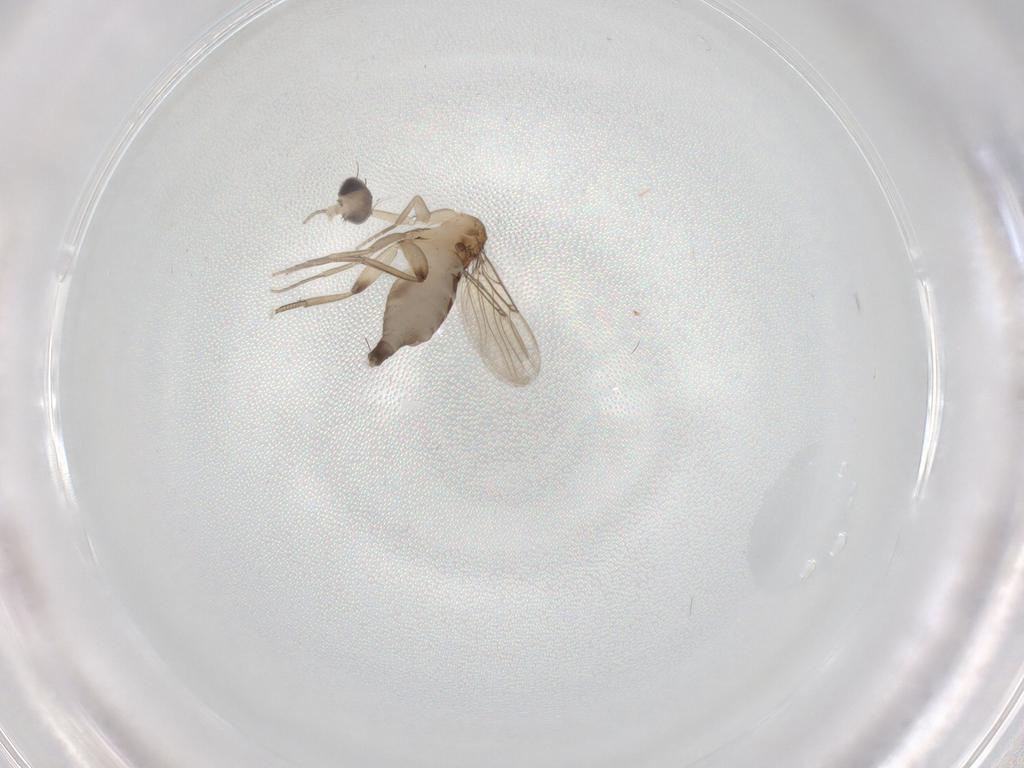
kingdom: Animalia
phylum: Arthropoda
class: Insecta
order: Diptera
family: Phoridae
